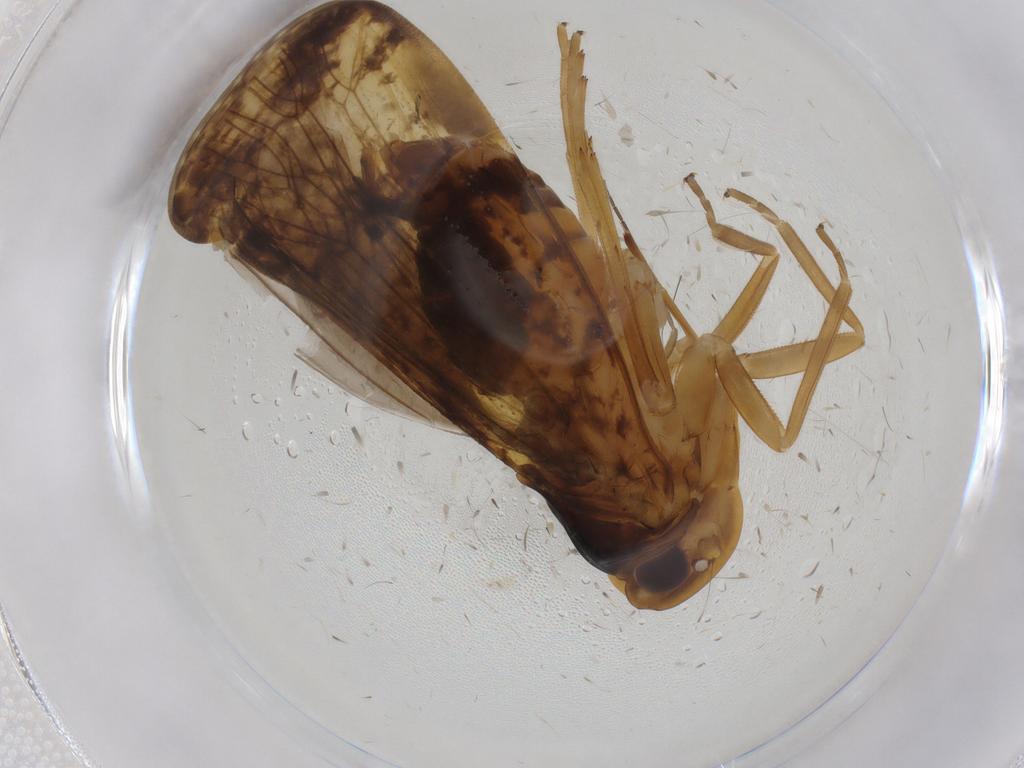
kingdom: Animalia
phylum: Arthropoda
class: Insecta
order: Hemiptera
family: Cixiidae
